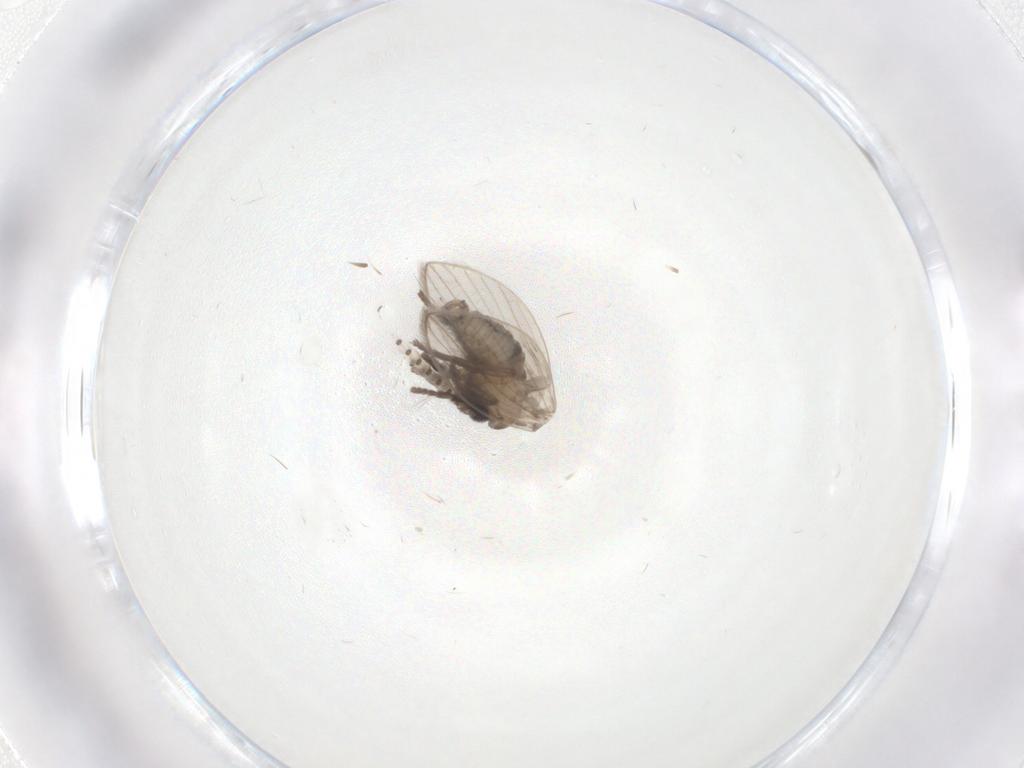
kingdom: Animalia
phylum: Arthropoda
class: Insecta
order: Diptera
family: Psychodidae
